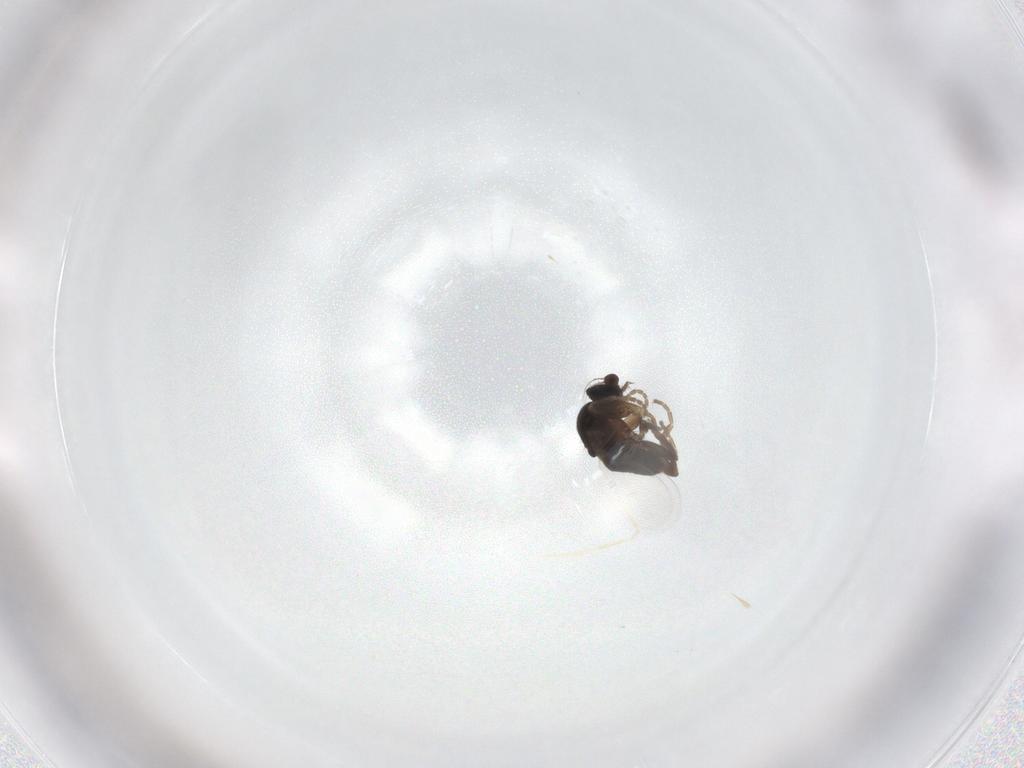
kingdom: Animalia
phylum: Arthropoda
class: Insecta
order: Diptera
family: Phoridae
